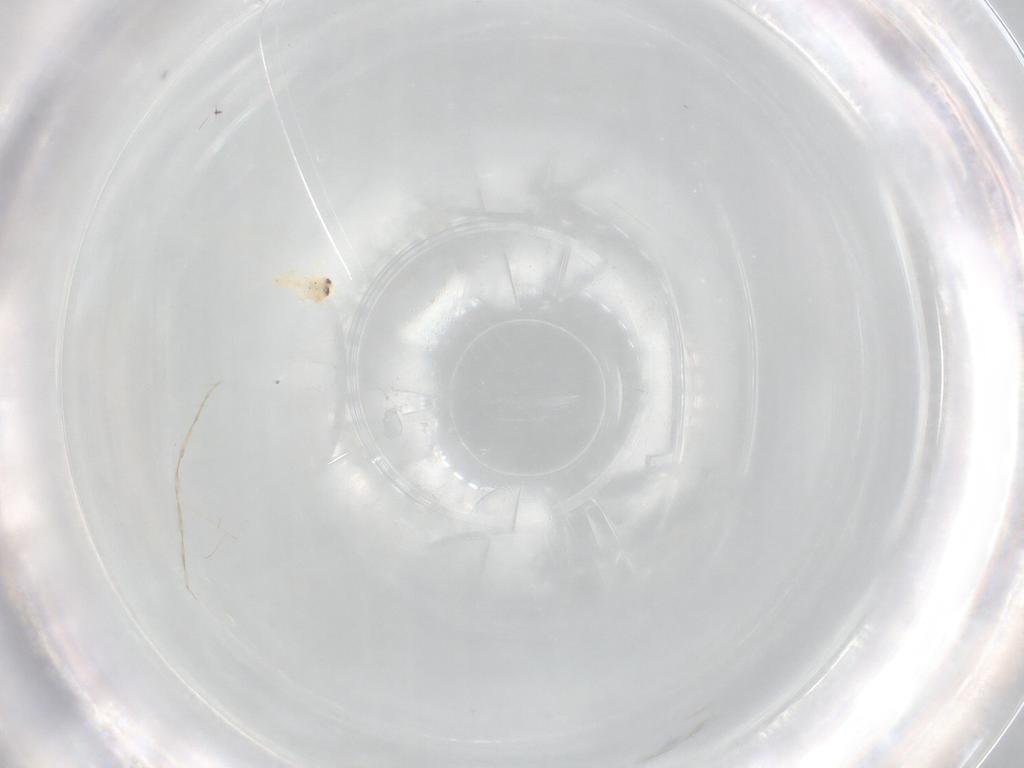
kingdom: Animalia
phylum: Arthropoda
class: Insecta
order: Hemiptera
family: Aleyrodidae
